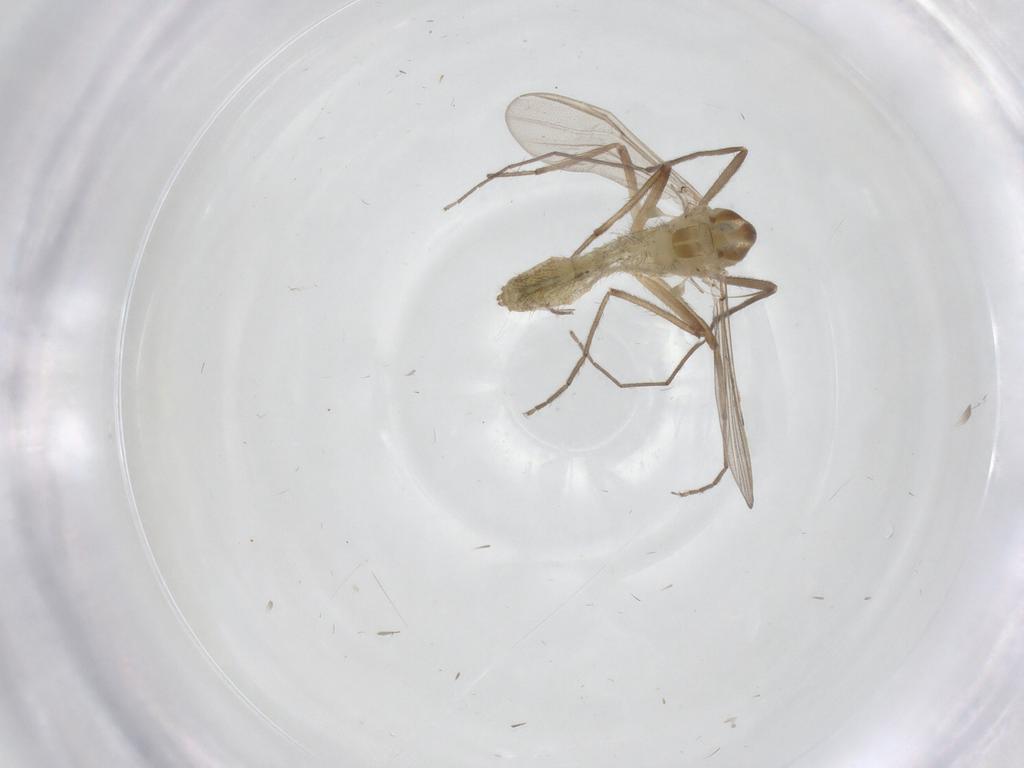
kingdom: Animalia
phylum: Arthropoda
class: Insecta
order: Diptera
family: Chironomidae
